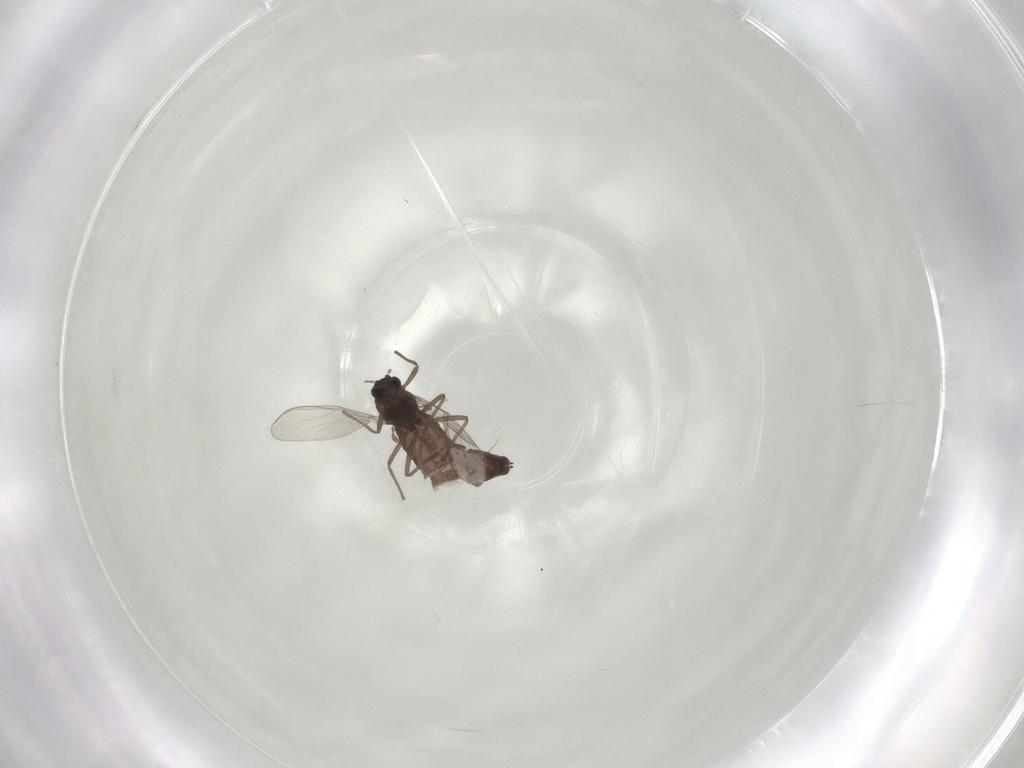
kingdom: Animalia
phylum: Arthropoda
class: Insecta
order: Diptera
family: Chironomidae
